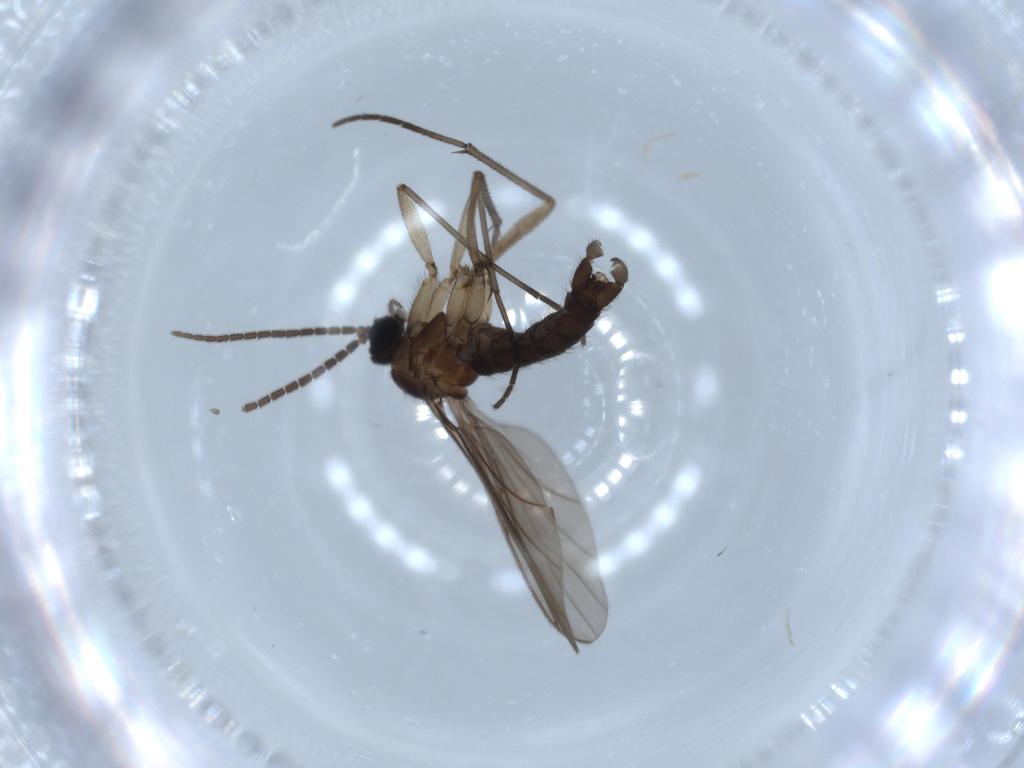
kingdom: Animalia
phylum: Arthropoda
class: Insecta
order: Diptera
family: Sciaridae
